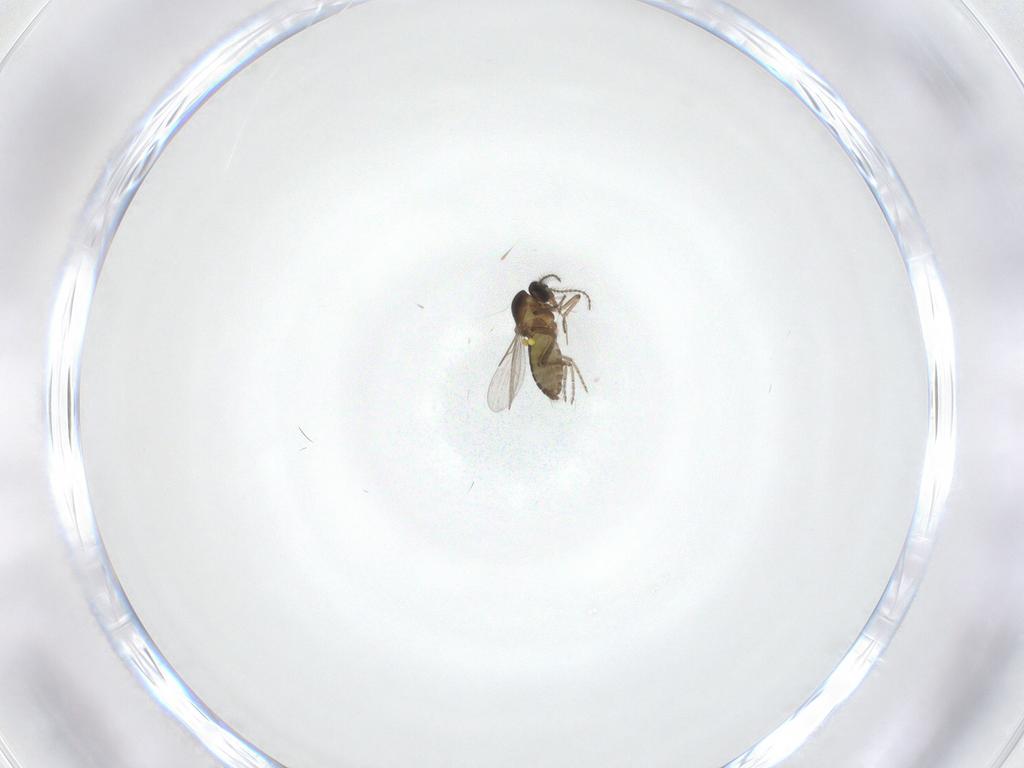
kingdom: Animalia
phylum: Arthropoda
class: Insecta
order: Diptera
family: Ceratopogonidae
